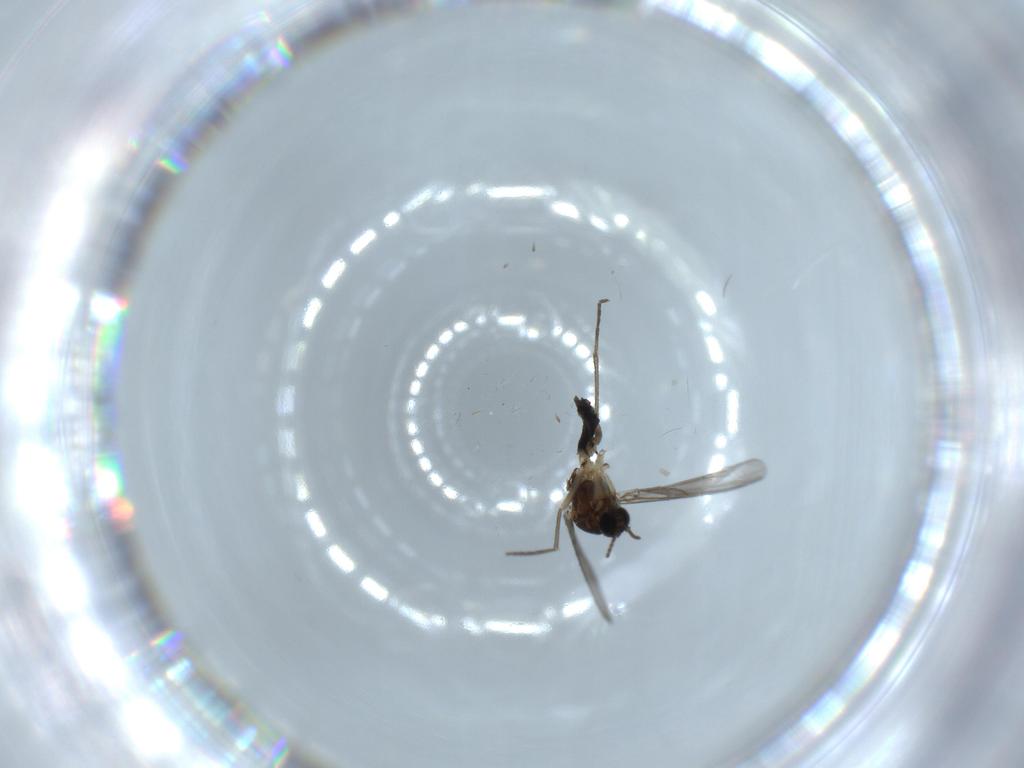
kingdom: Animalia
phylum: Arthropoda
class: Insecta
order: Diptera
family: Sciaridae
